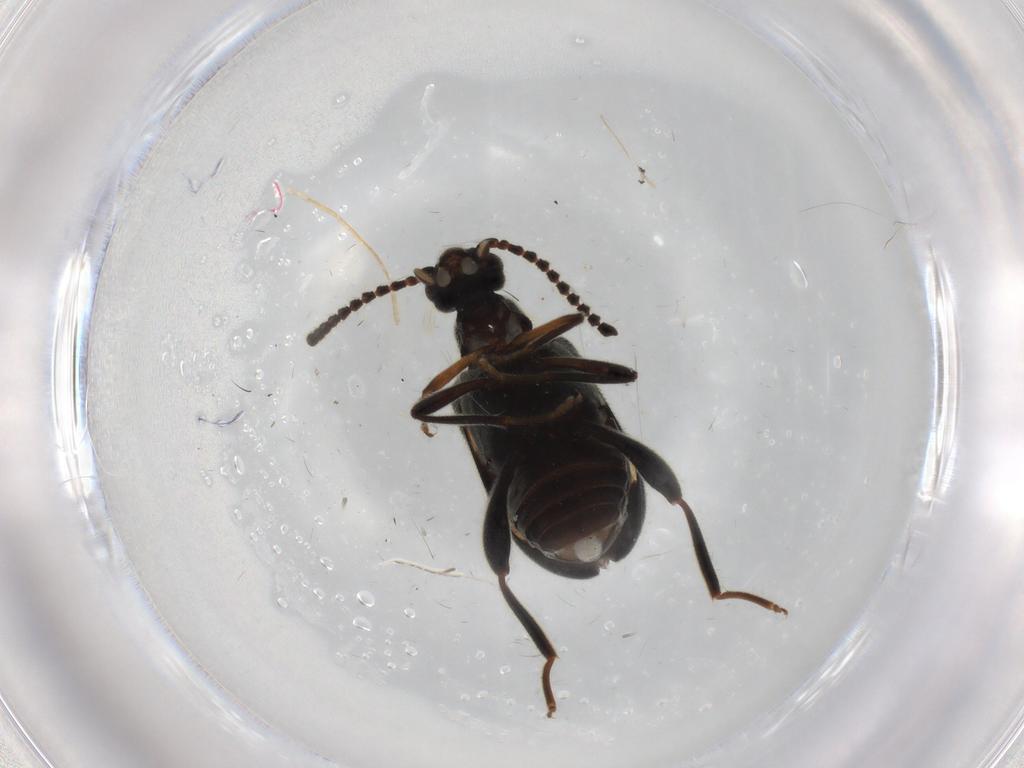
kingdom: Animalia
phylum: Arthropoda
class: Insecta
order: Coleoptera
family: Aderidae
